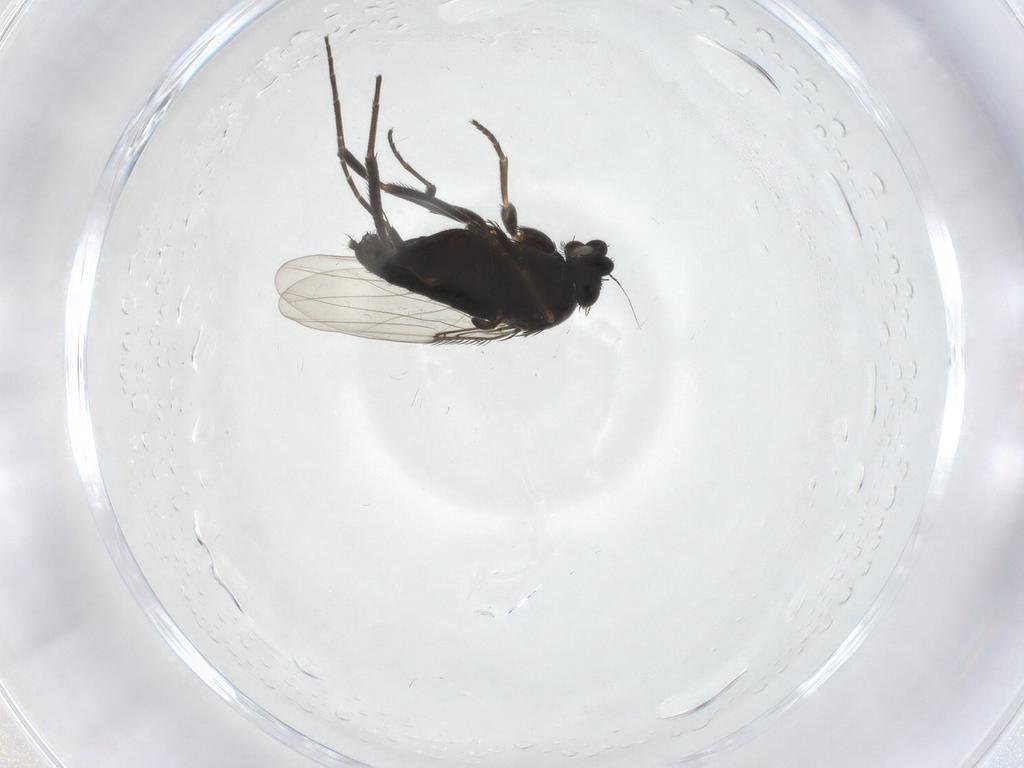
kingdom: Animalia
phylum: Arthropoda
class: Insecta
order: Diptera
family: Phoridae
